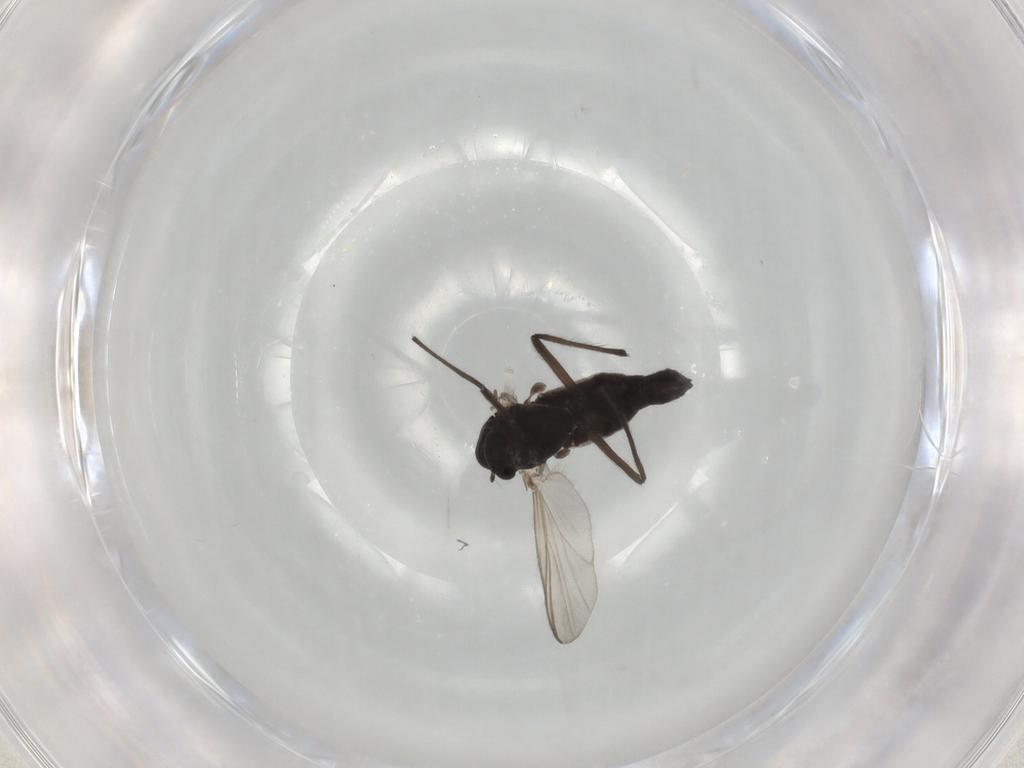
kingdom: Animalia
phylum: Arthropoda
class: Insecta
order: Diptera
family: Chironomidae
